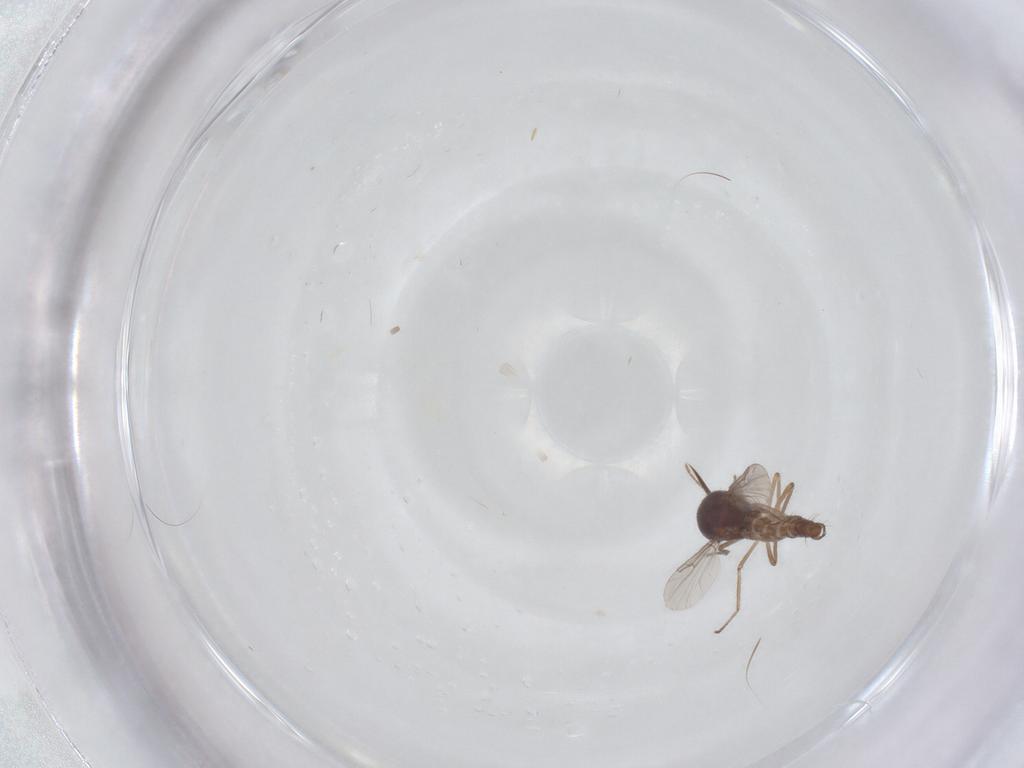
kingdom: Animalia
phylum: Arthropoda
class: Insecta
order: Diptera
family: Ceratopogonidae
